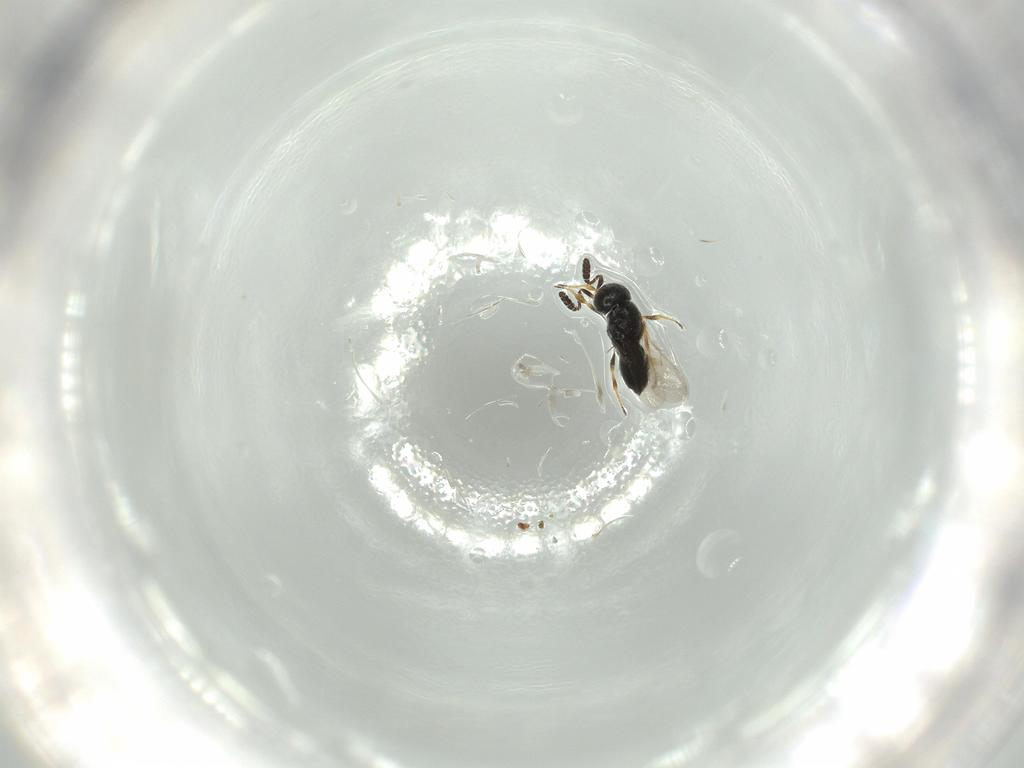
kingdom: Animalia
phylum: Arthropoda
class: Insecta
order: Hymenoptera
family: Scelionidae
